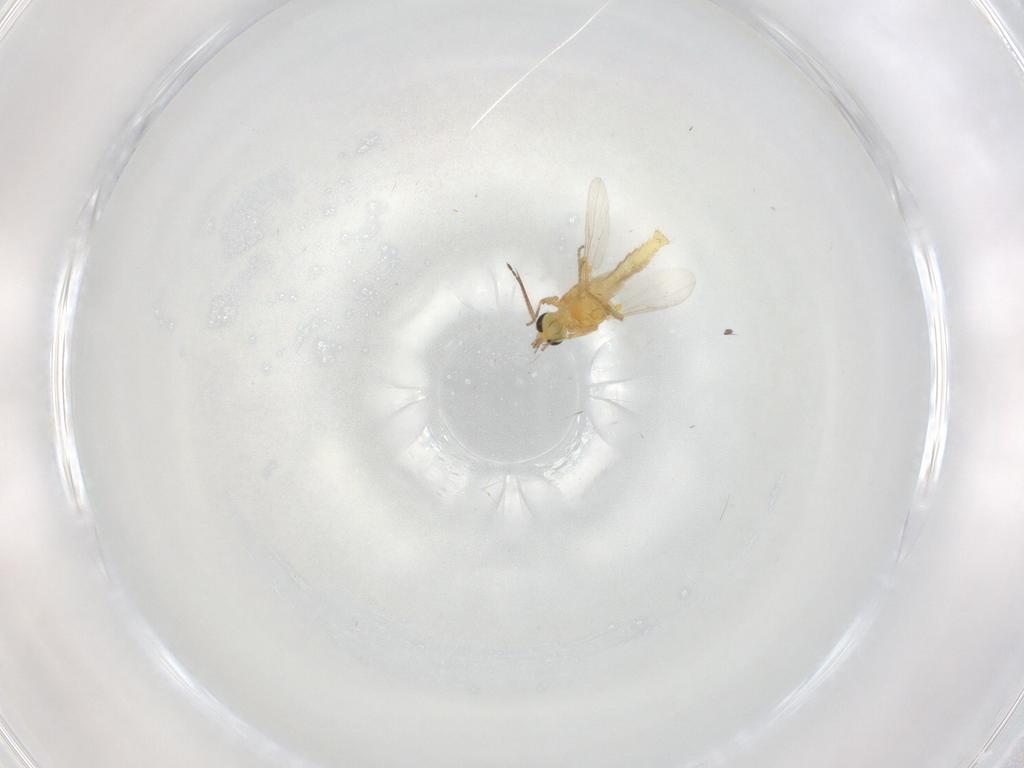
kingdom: Animalia
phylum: Arthropoda
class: Insecta
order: Diptera
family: Ceratopogonidae
